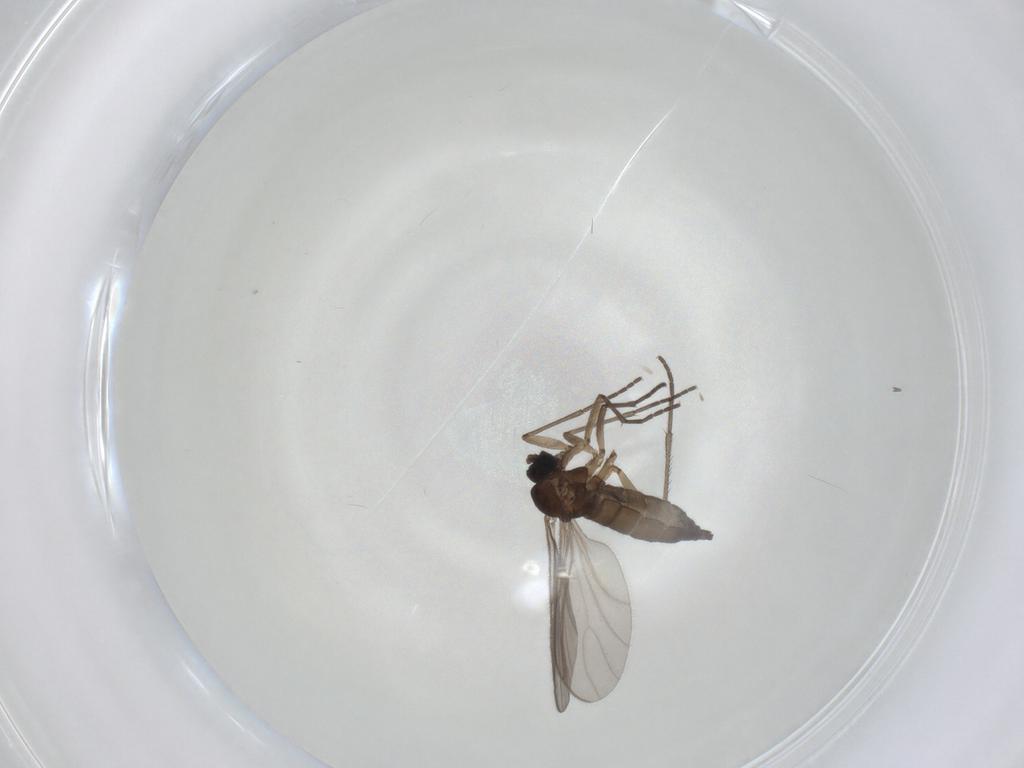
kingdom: Animalia
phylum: Arthropoda
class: Insecta
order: Diptera
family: Sciaridae
